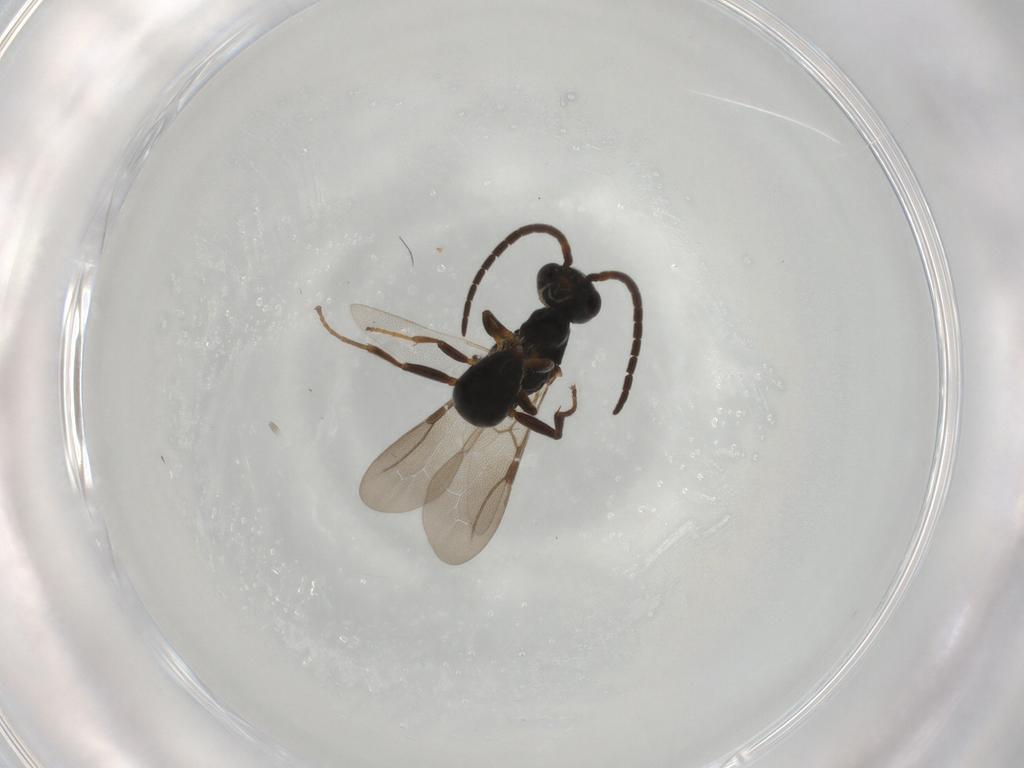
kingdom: Animalia
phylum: Arthropoda
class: Insecta
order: Hymenoptera
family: Bethylidae
